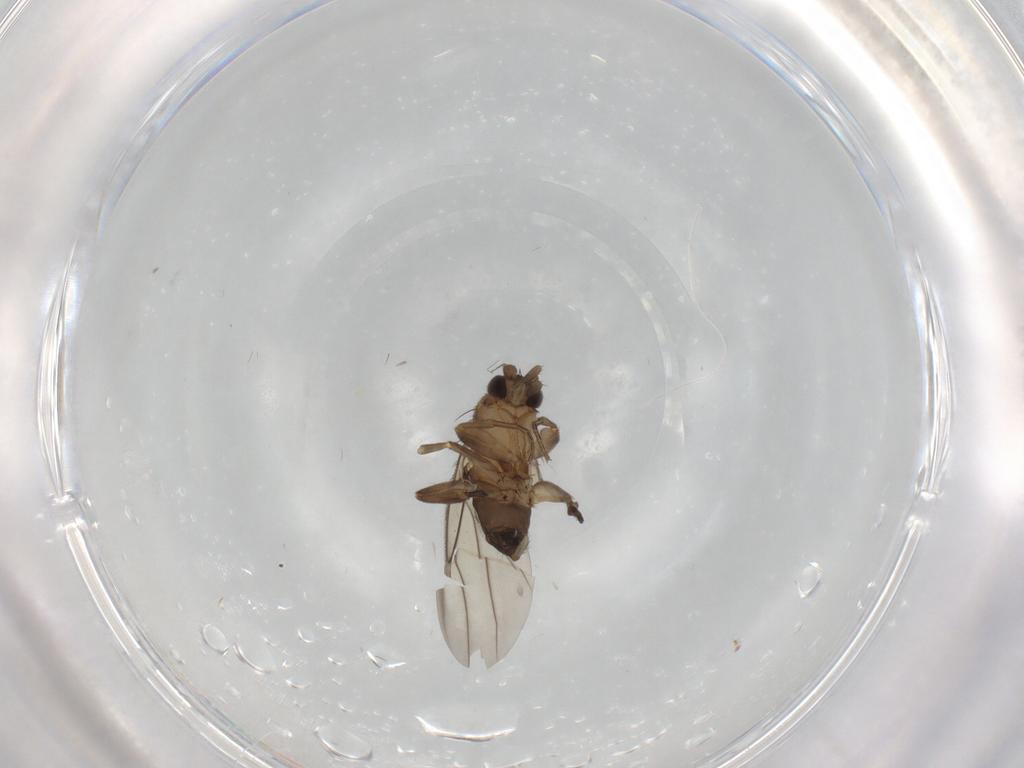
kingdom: Animalia
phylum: Arthropoda
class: Insecta
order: Diptera
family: Phoridae
